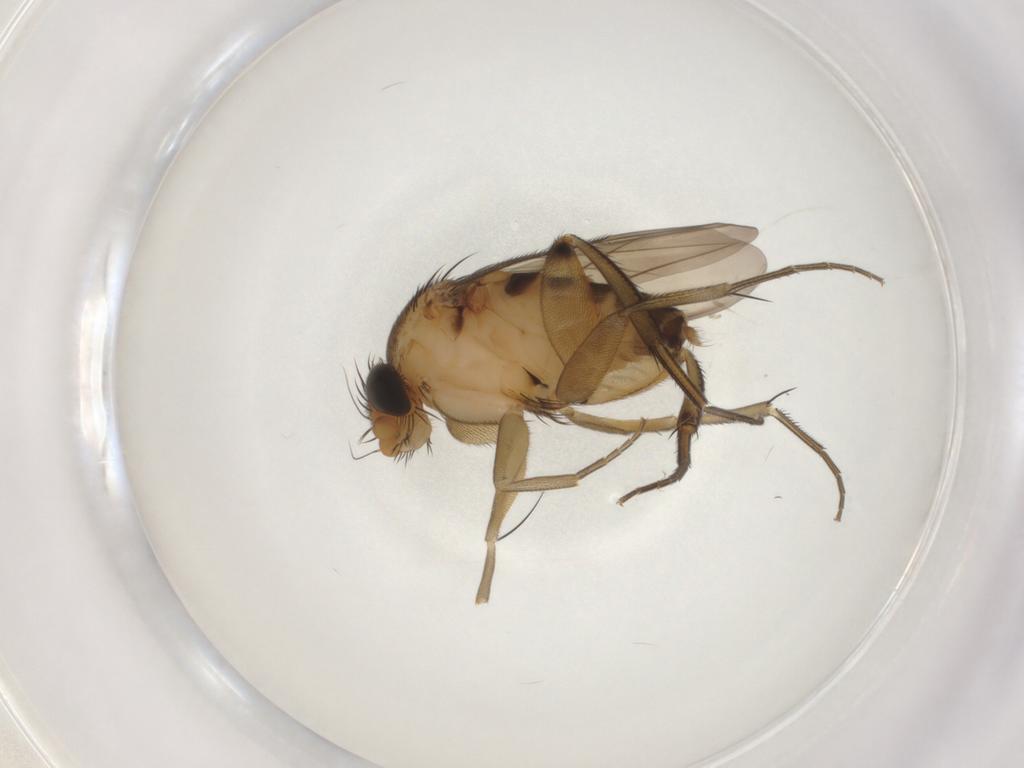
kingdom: Animalia
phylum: Arthropoda
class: Insecta
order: Diptera
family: Phoridae
